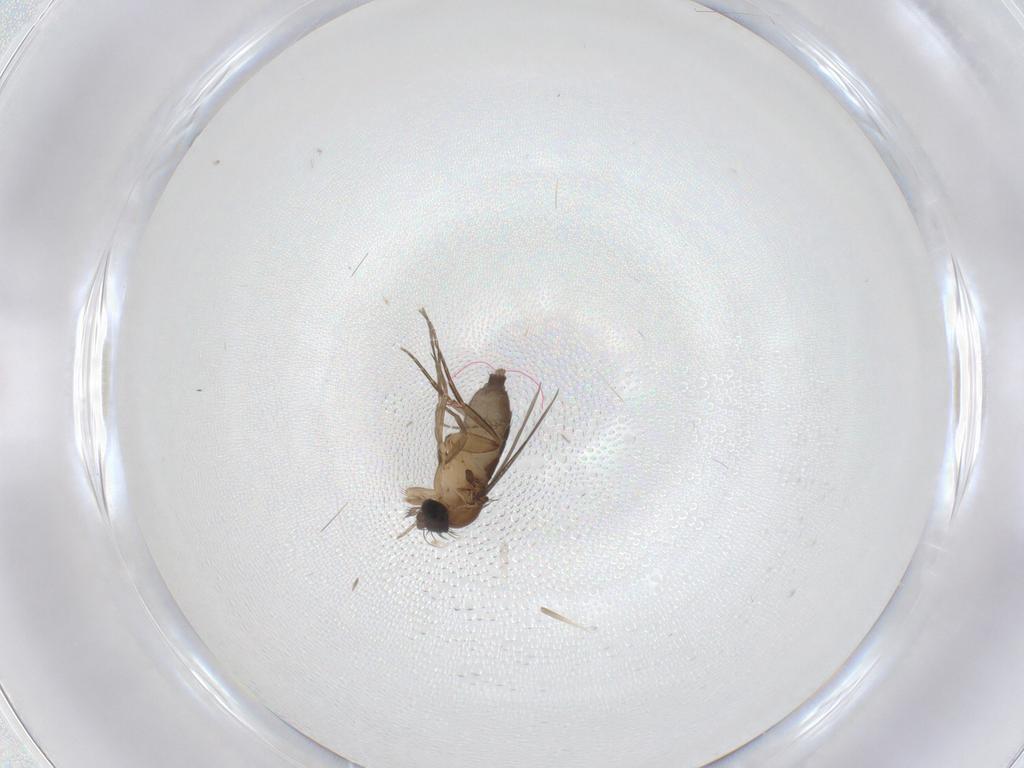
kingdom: Animalia
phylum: Arthropoda
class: Insecta
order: Diptera
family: Phoridae
